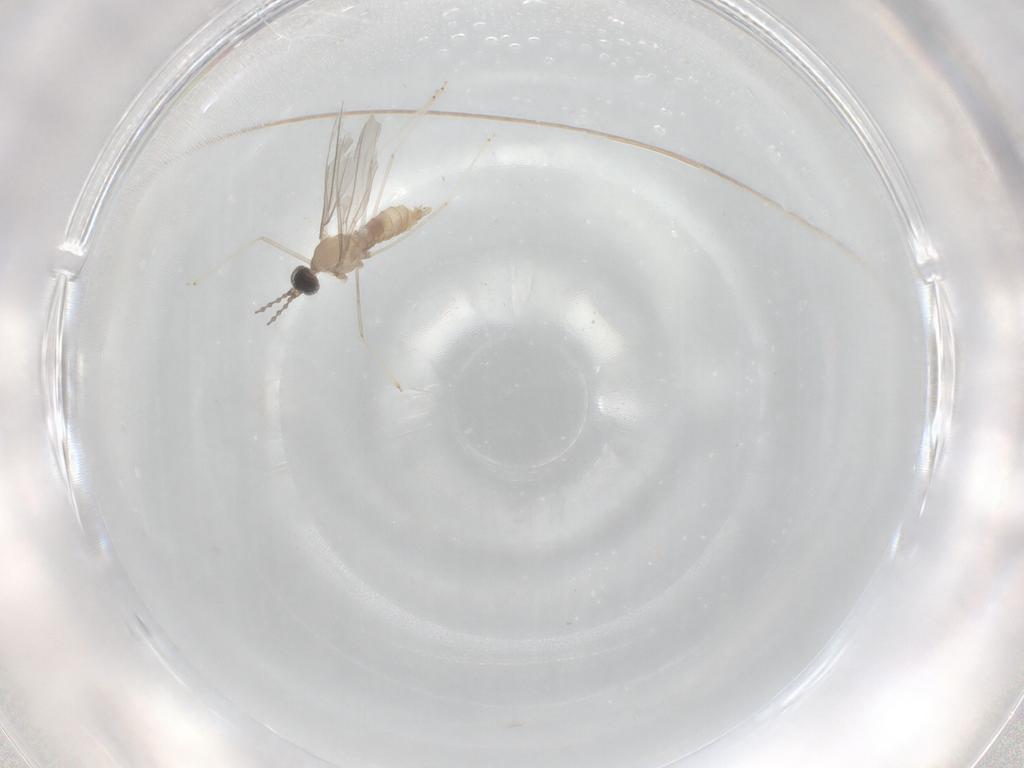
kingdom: Animalia
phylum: Arthropoda
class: Insecta
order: Diptera
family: Cecidomyiidae
